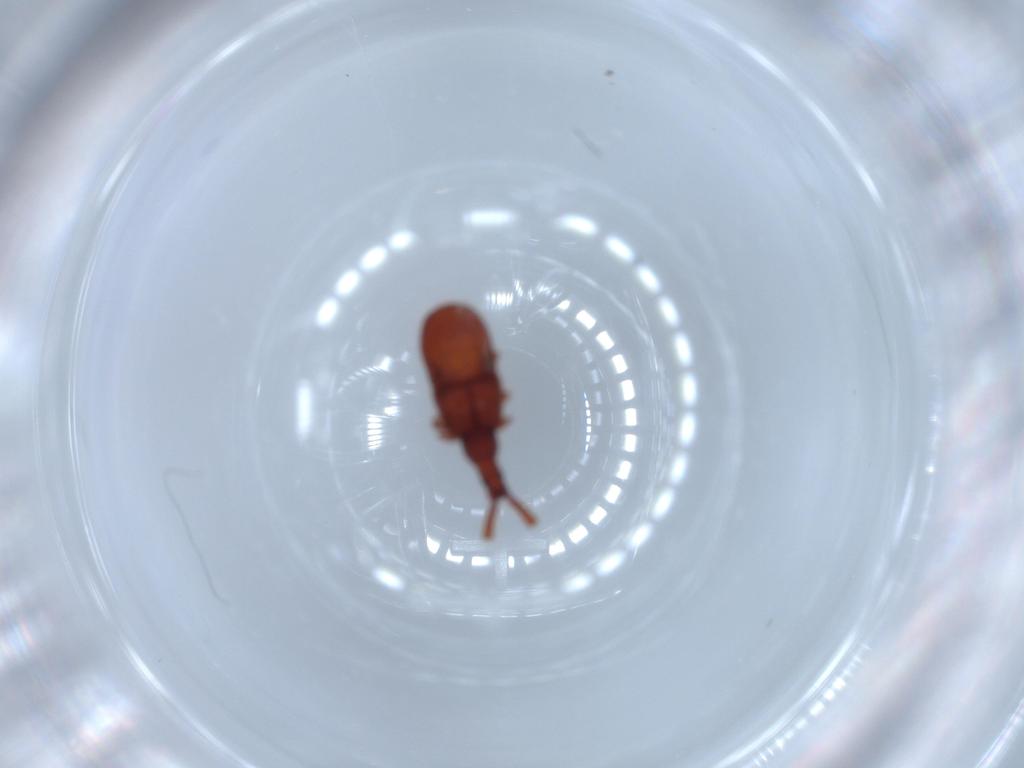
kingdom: Animalia
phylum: Arthropoda
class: Insecta
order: Coleoptera
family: Staphylinidae
